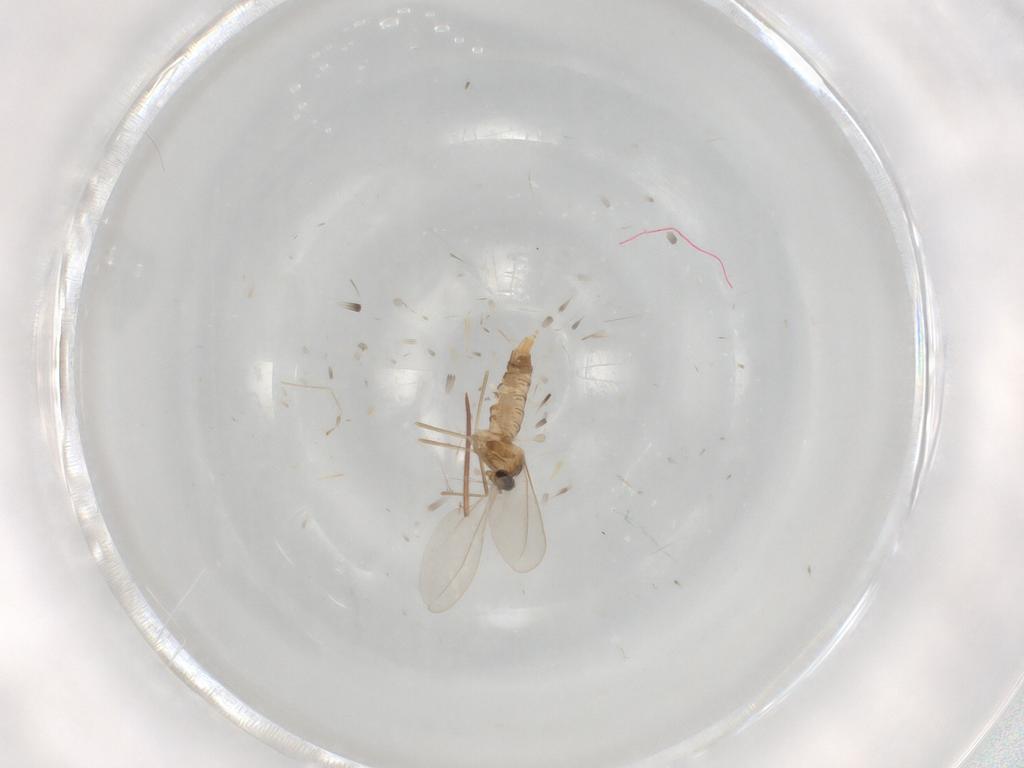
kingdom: Animalia
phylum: Arthropoda
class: Insecta
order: Diptera
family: Cecidomyiidae
